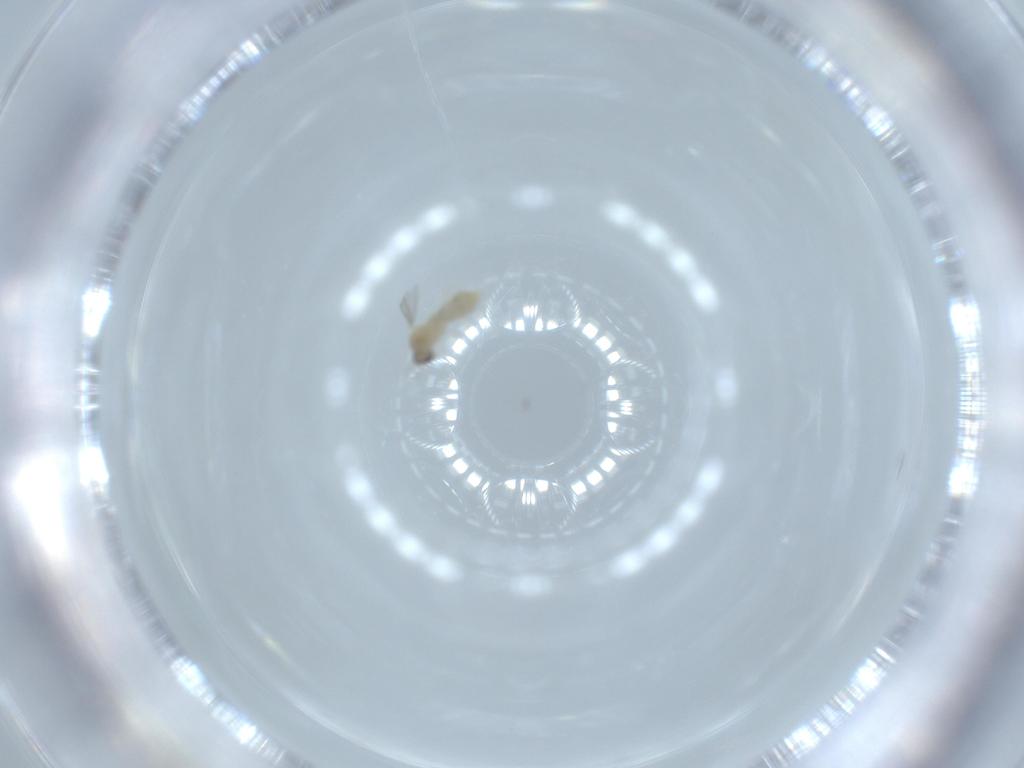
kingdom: Animalia
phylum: Arthropoda
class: Insecta
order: Diptera
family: Cecidomyiidae
